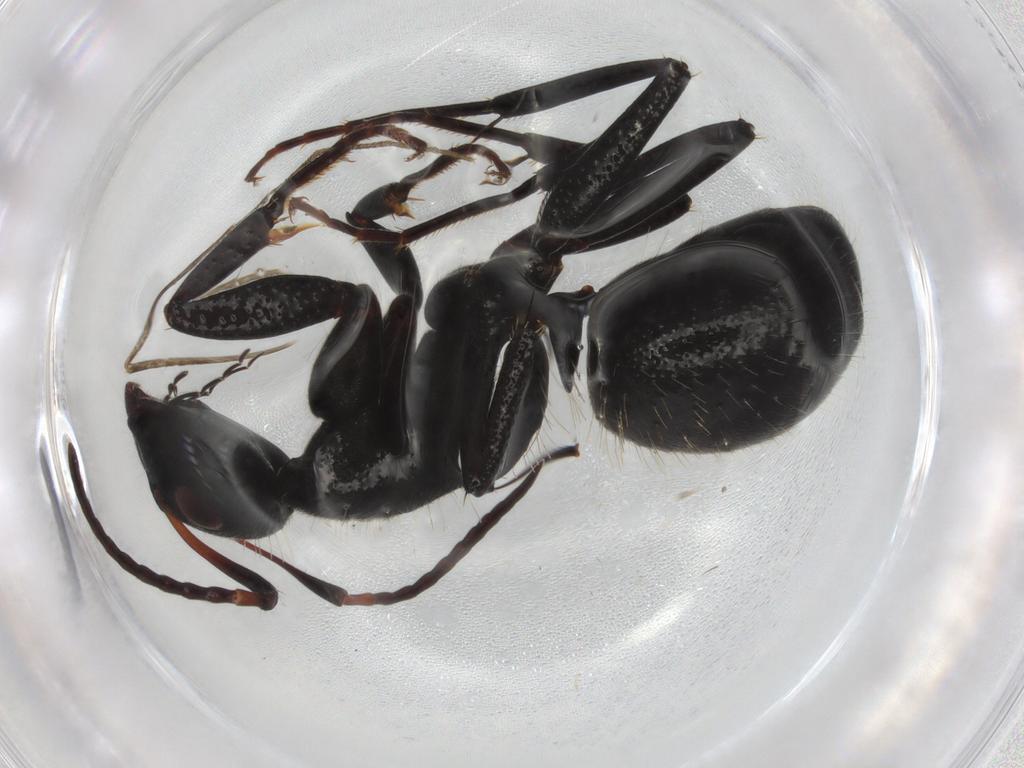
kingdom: Animalia
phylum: Arthropoda
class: Insecta
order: Hymenoptera
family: Formicidae
